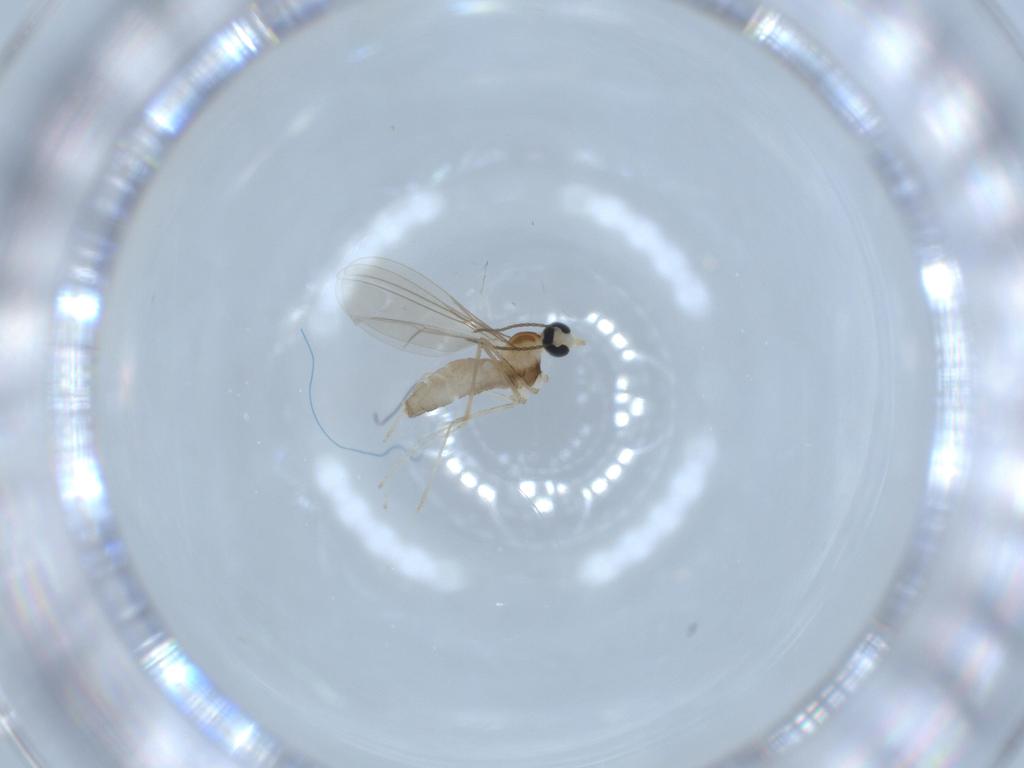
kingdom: Animalia
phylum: Arthropoda
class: Insecta
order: Diptera
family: Cecidomyiidae
